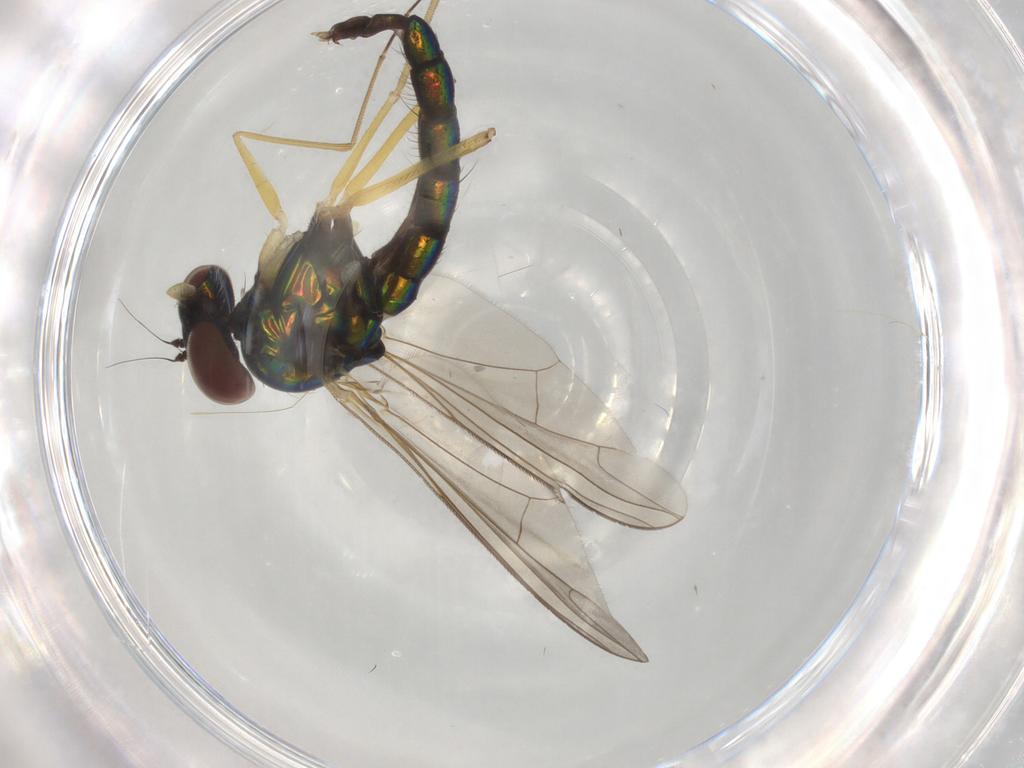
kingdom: Animalia
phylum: Arthropoda
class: Insecta
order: Diptera
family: Dolichopodidae
